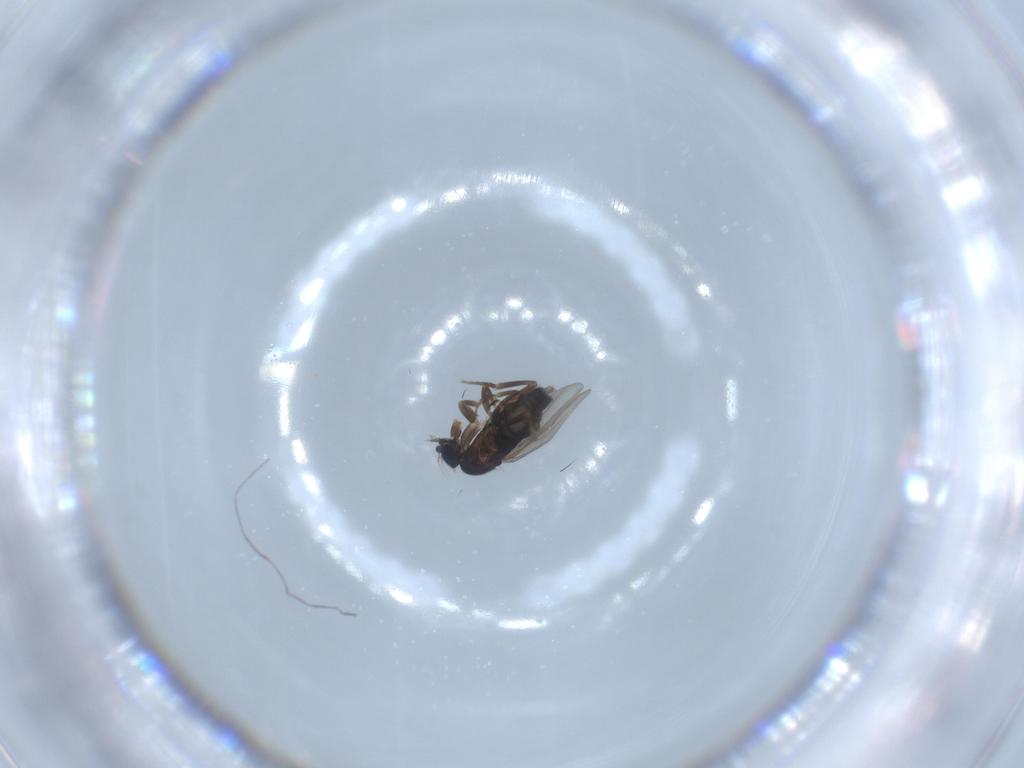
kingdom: Animalia
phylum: Arthropoda
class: Insecta
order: Diptera
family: Phoridae
